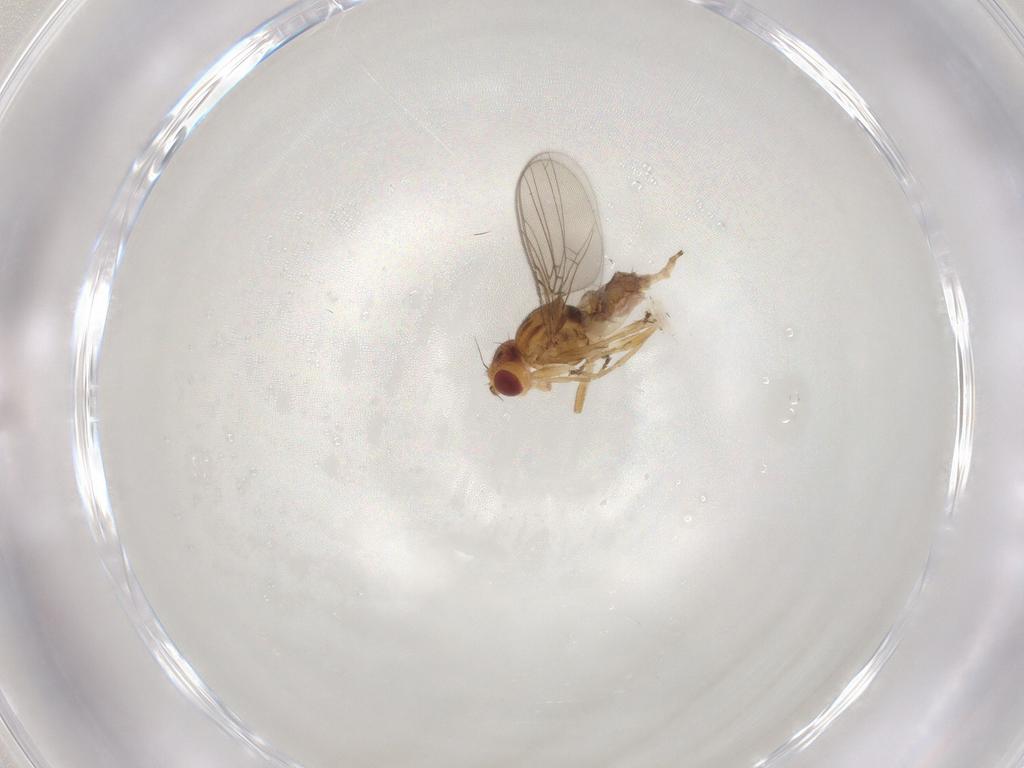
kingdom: Animalia
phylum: Arthropoda
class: Insecta
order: Diptera
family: Chloropidae
